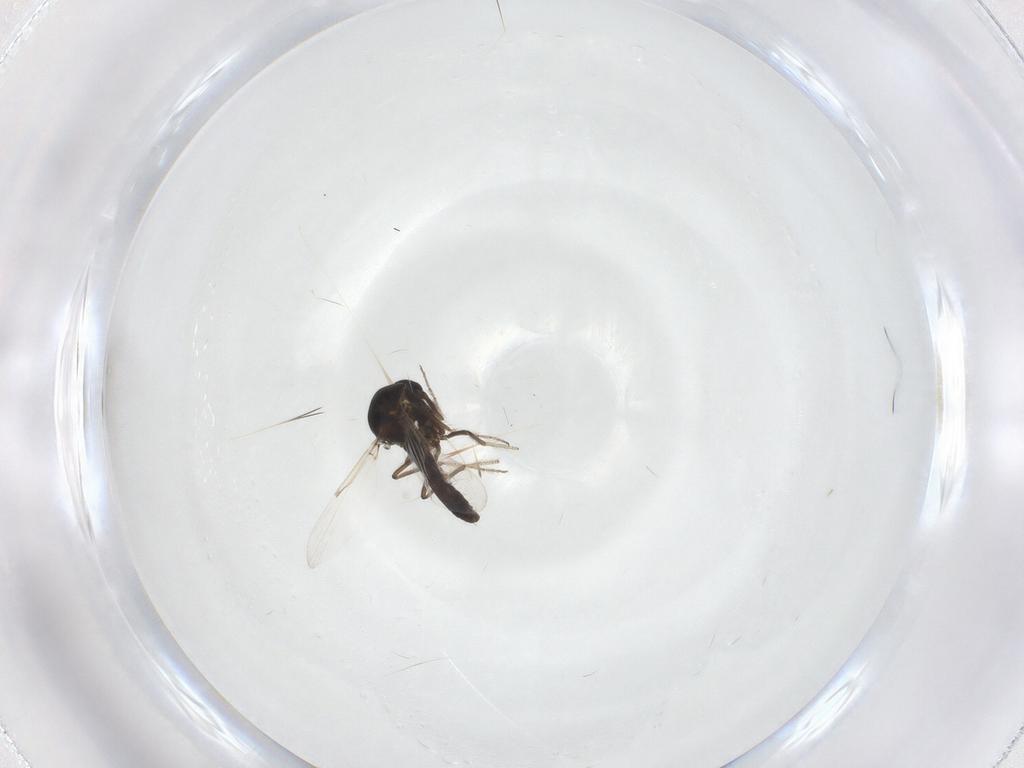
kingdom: Animalia
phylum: Arthropoda
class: Insecta
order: Diptera
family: Ceratopogonidae
